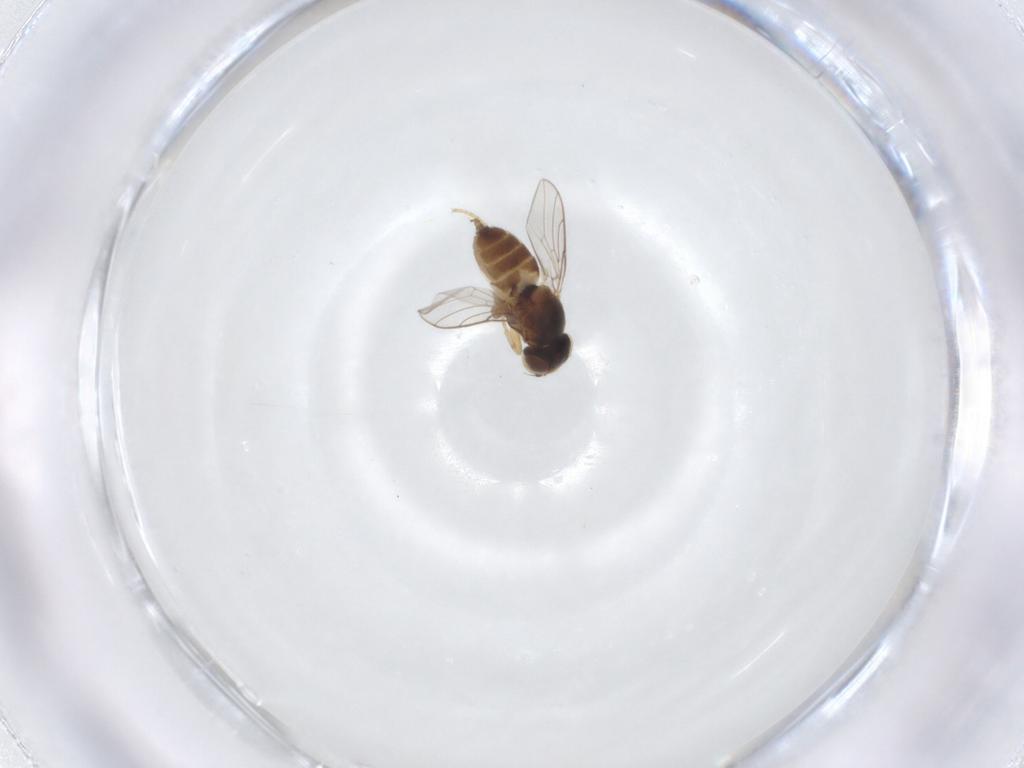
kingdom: Animalia
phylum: Arthropoda
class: Insecta
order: Diptera
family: Chloropidae
